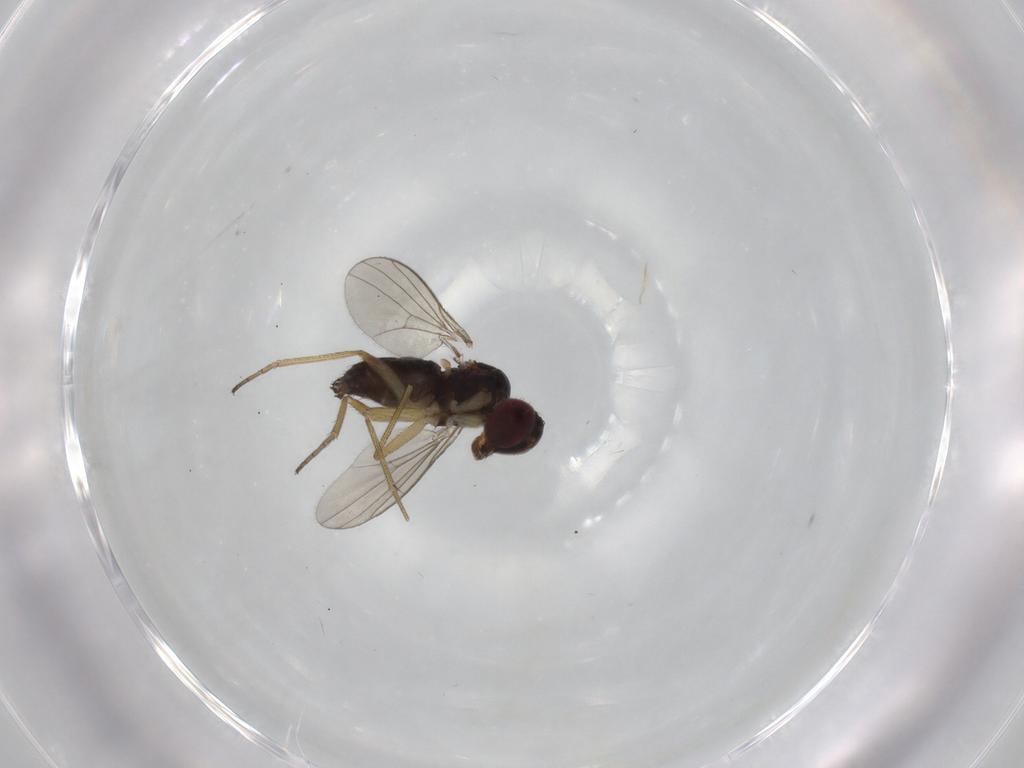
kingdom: Animalia
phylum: Arthropoda
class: Insecta
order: Diptera
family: Dolichopodidae
